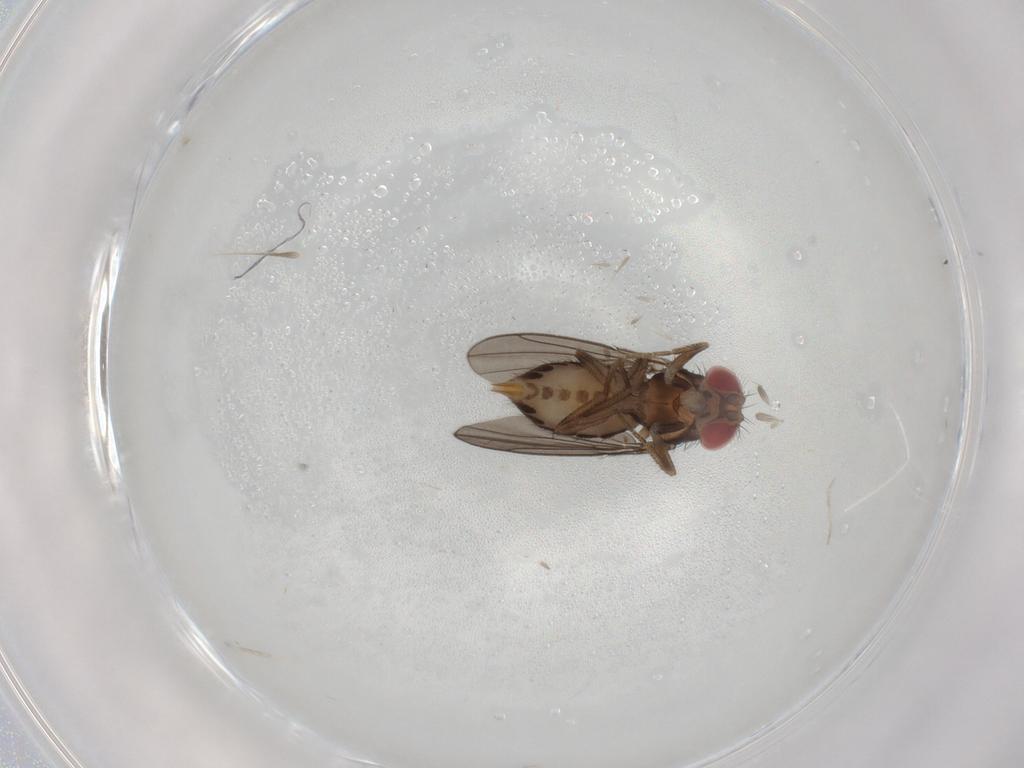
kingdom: Animalia
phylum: Arthropoda
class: Insecta
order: Diptera
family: Drosophilidae
